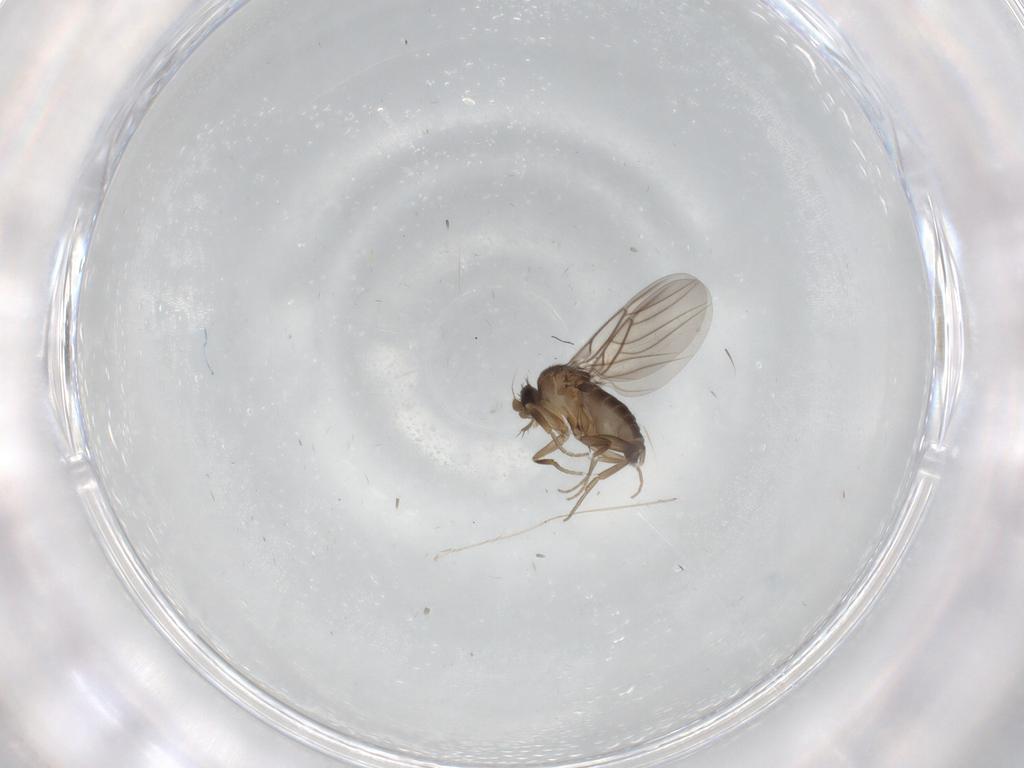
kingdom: Animalia
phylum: Arthropoda
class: Insecta
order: Diptera
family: Phoridae
